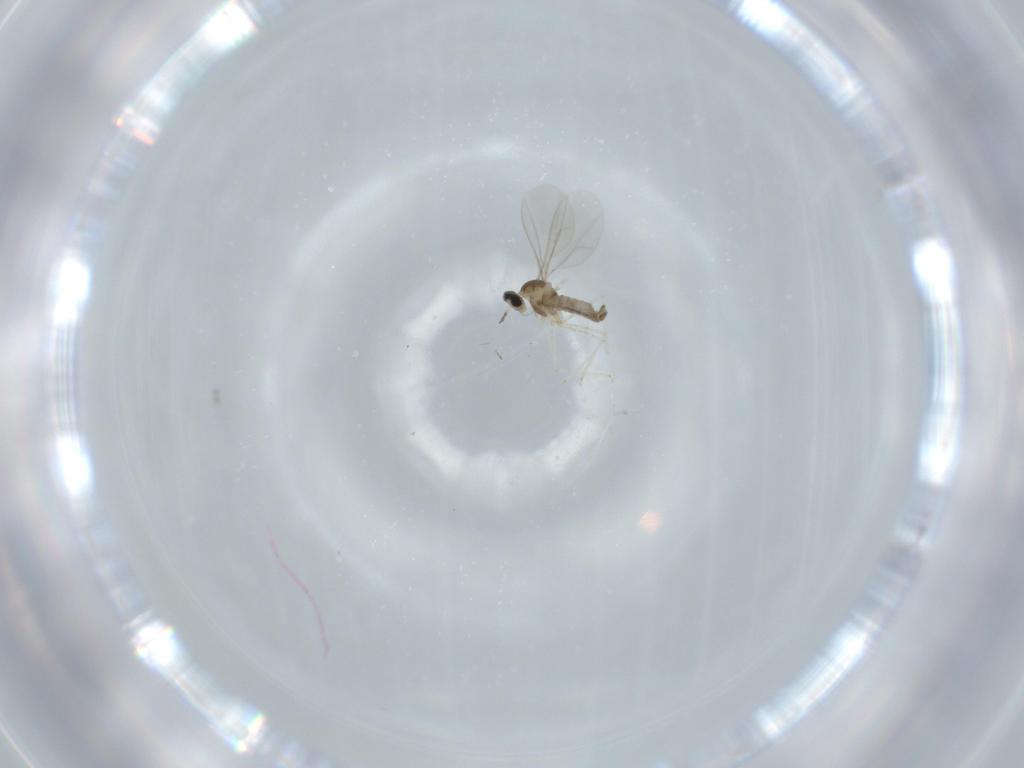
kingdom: Animalia
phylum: Arthropoda
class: Insecta
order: Diptera
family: Cecidomyiidae
